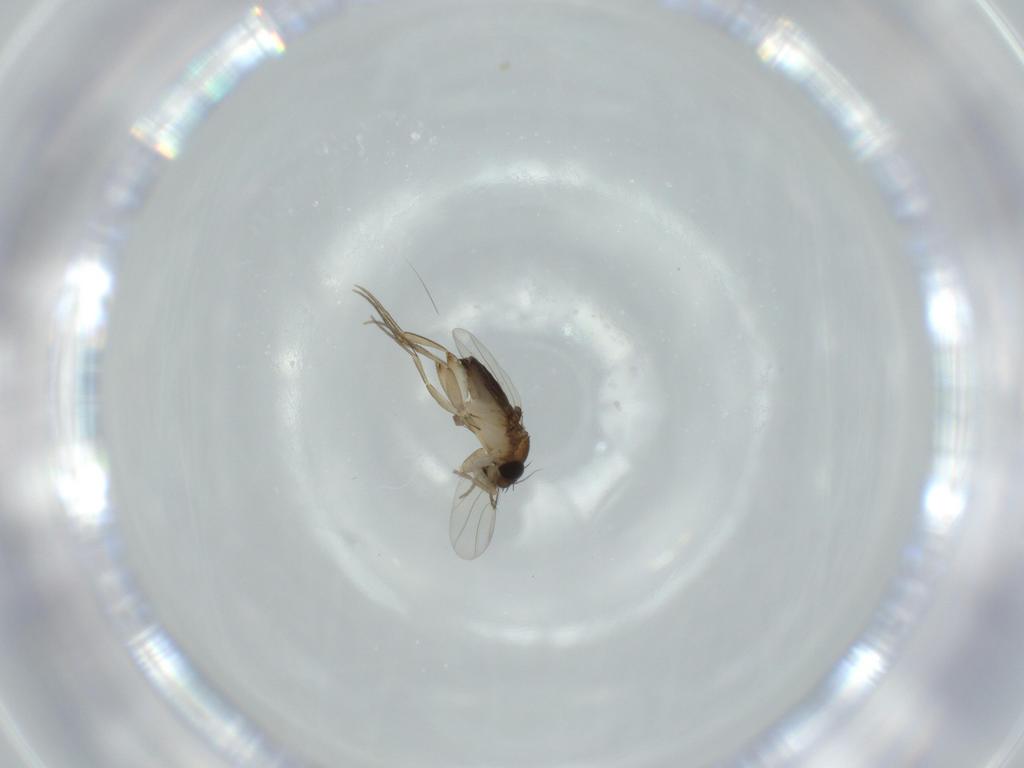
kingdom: Animalia
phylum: Arthropoda
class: Insecta
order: Diptera
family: Phoridae
